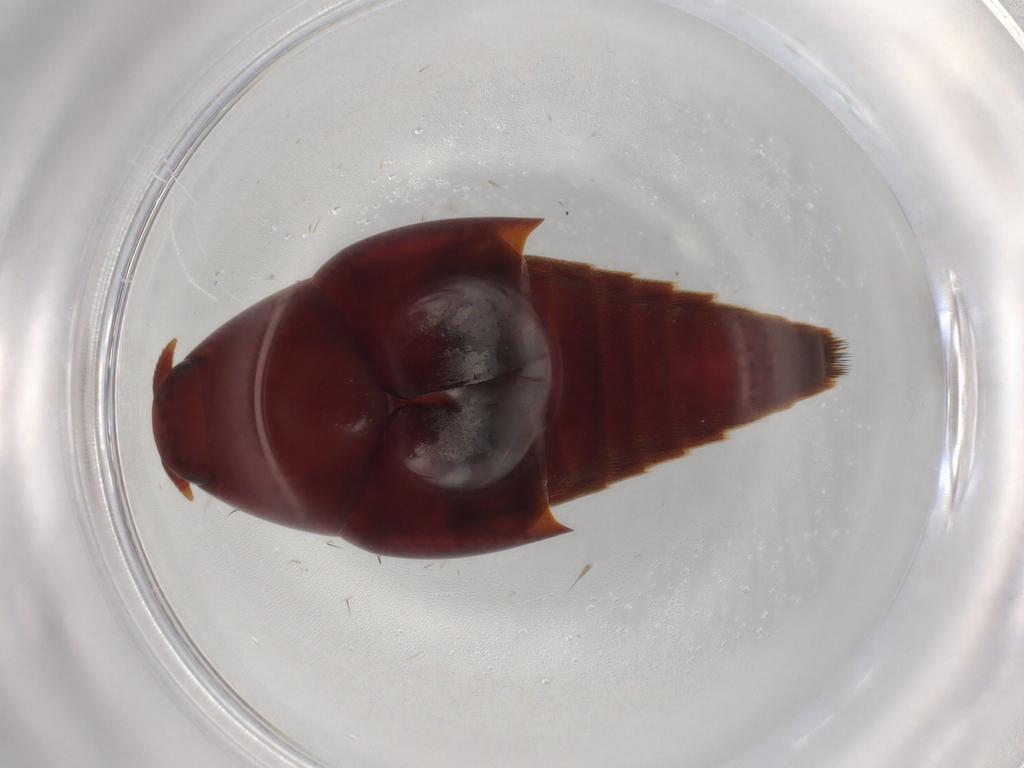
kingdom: Animalia
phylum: Arthropoda
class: Insecta
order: Coleoptera
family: Staphylinidae
